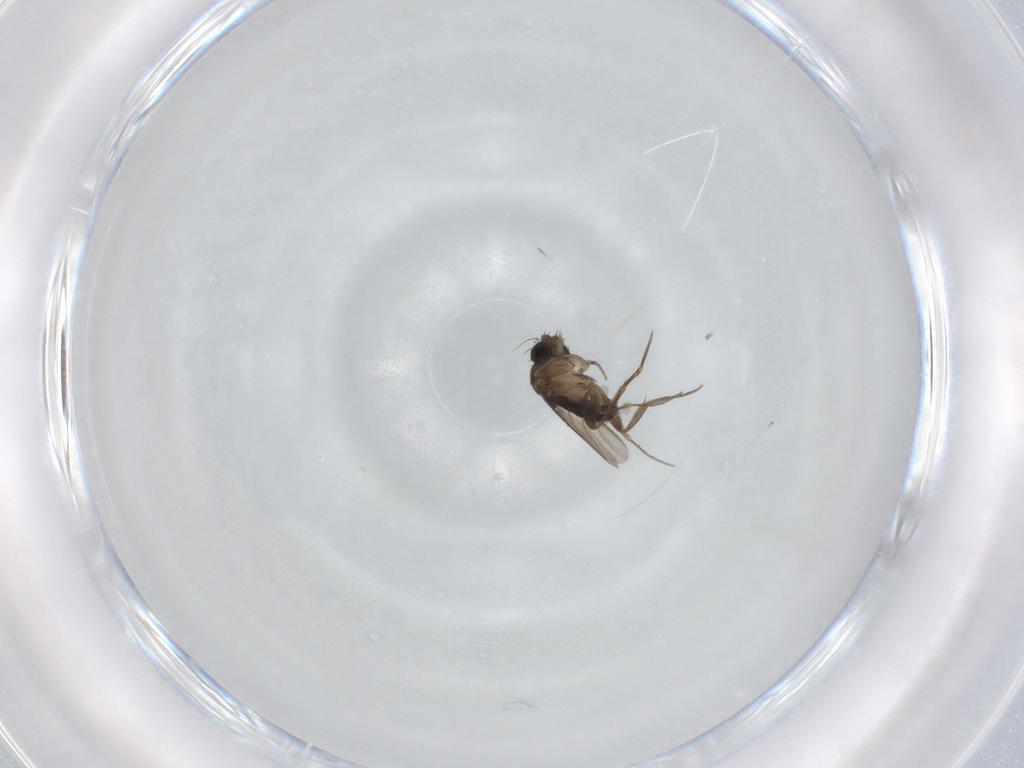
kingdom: Animalia
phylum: Arthropoda
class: Insecta
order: Diptera
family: Phoridae
